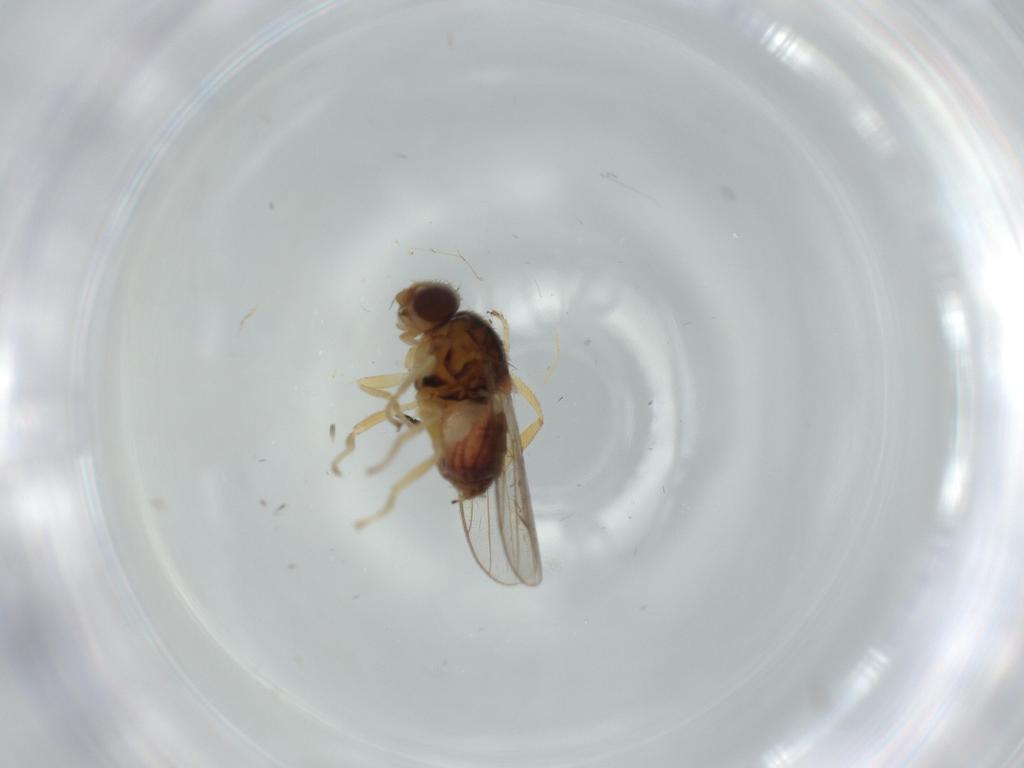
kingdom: Animalia
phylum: Arthropoda
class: Insecta
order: Diptera
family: Chloropidae
